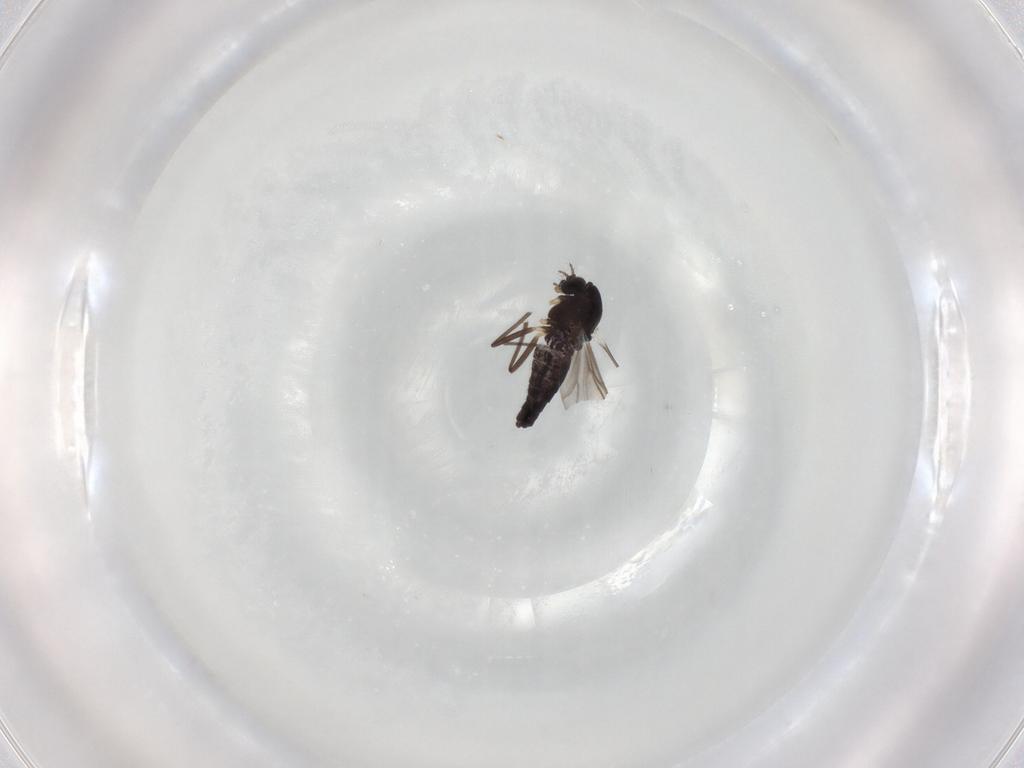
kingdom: Animalia
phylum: Arthropoda
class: Insecta
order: Diptera
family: Chironomidae
